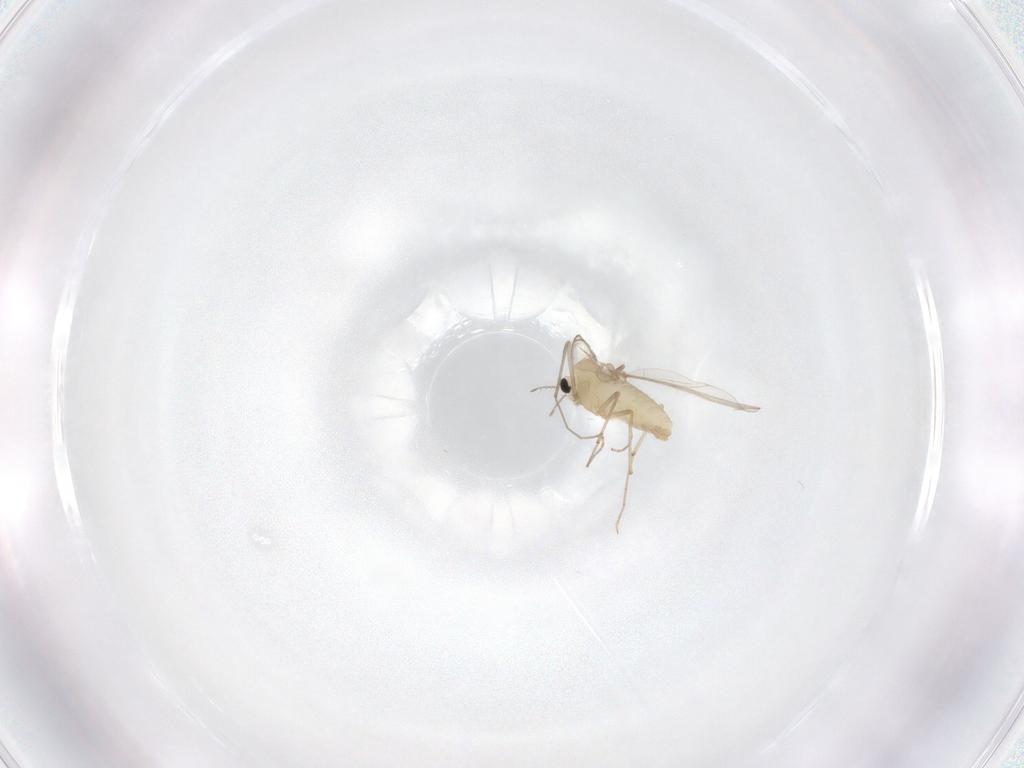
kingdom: Animalia
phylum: Arthropoda
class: Insecta
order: Diptera
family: Chironomidae
